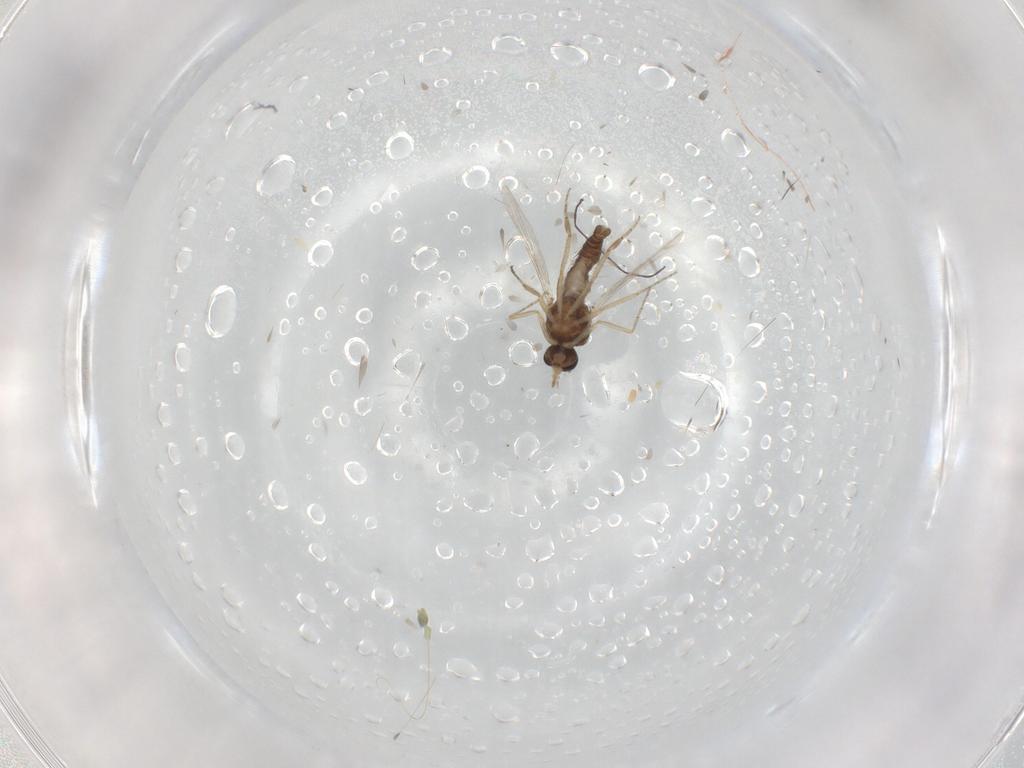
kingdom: Animalia
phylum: Arthropoda
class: Insecta
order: Diptera
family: Ceratopogonidae
